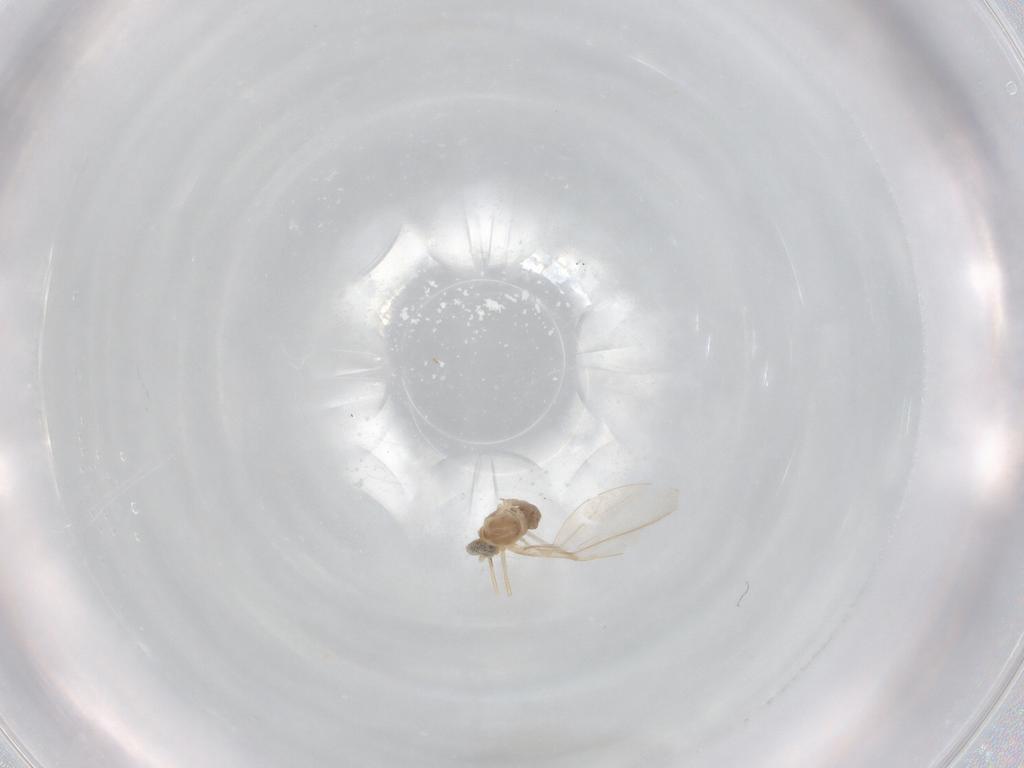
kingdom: Animalia
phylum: Arthropoda
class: Insecta
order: Diptera
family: Cecidomyiidae
